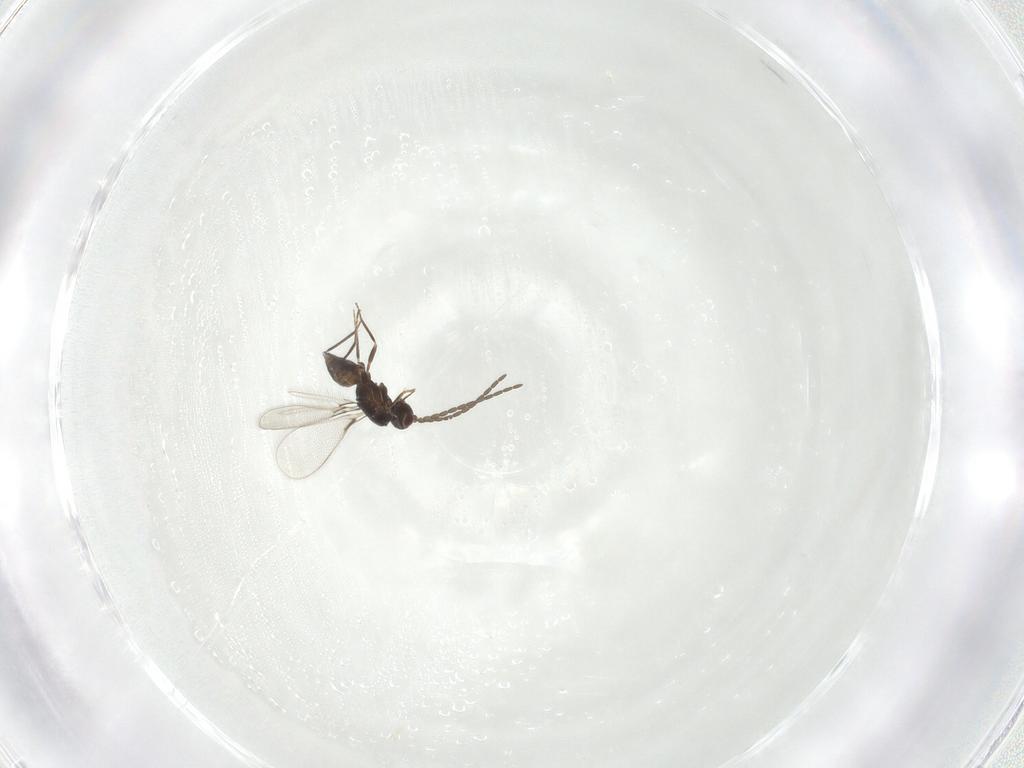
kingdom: Animalia
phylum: Arthropoda
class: Insecta
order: Hymenoptera
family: Mymaridae
